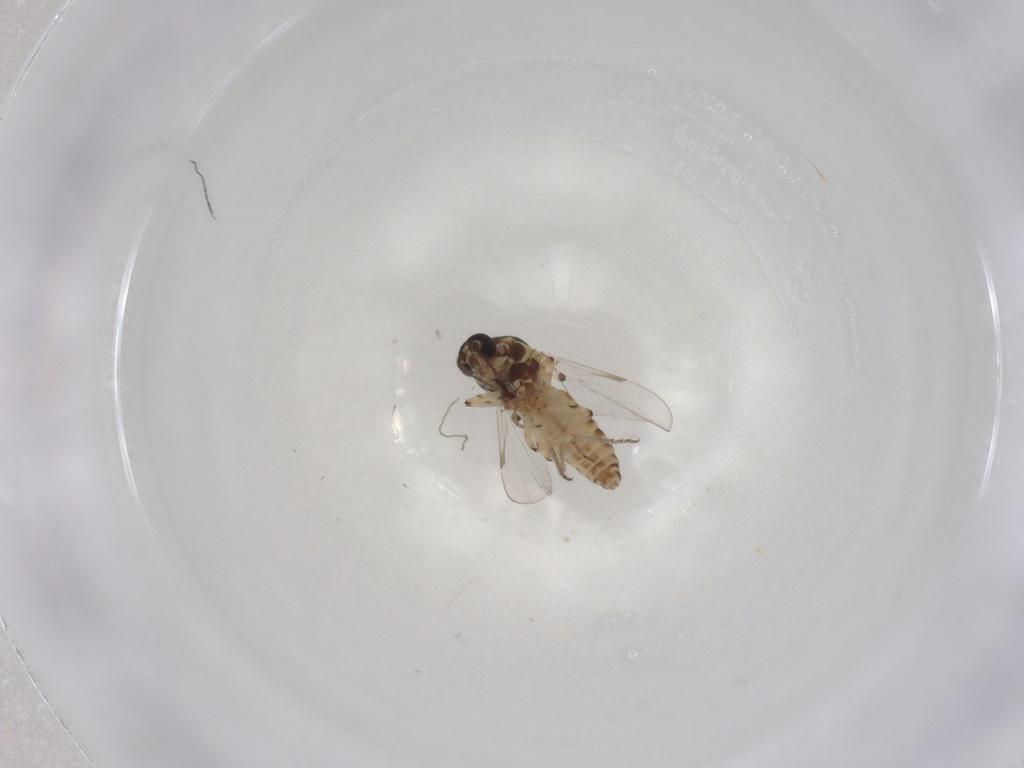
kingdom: Animalia
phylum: Arthropoda
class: Insecta
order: Diptera
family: Ceratopogonidae
